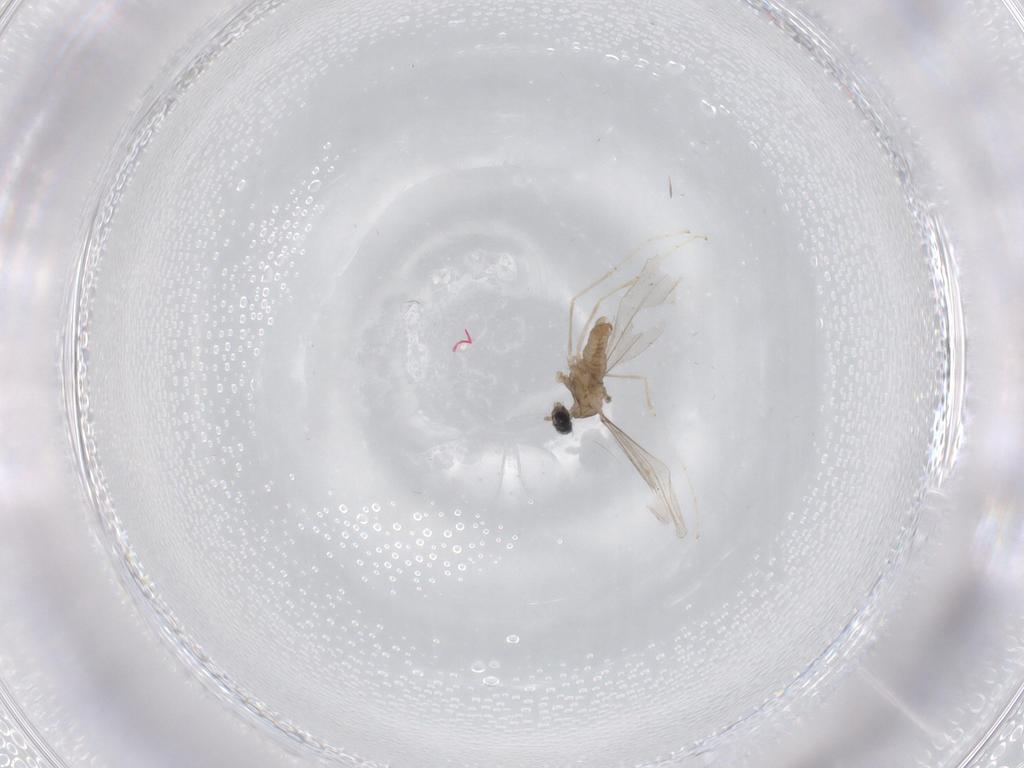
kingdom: Animalia
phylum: Arthropoda
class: Insecta
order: Diptera
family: Cecidomyiidae
